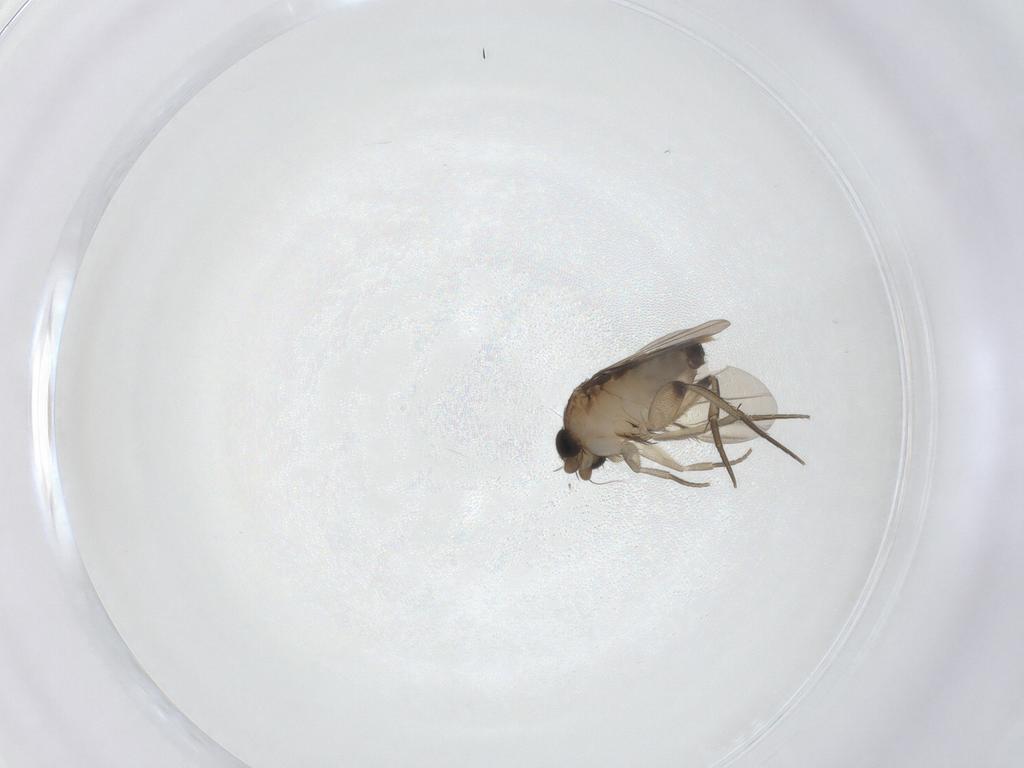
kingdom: Animalia
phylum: Arthropoda
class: Insecta
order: Diptera
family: Phoridae
